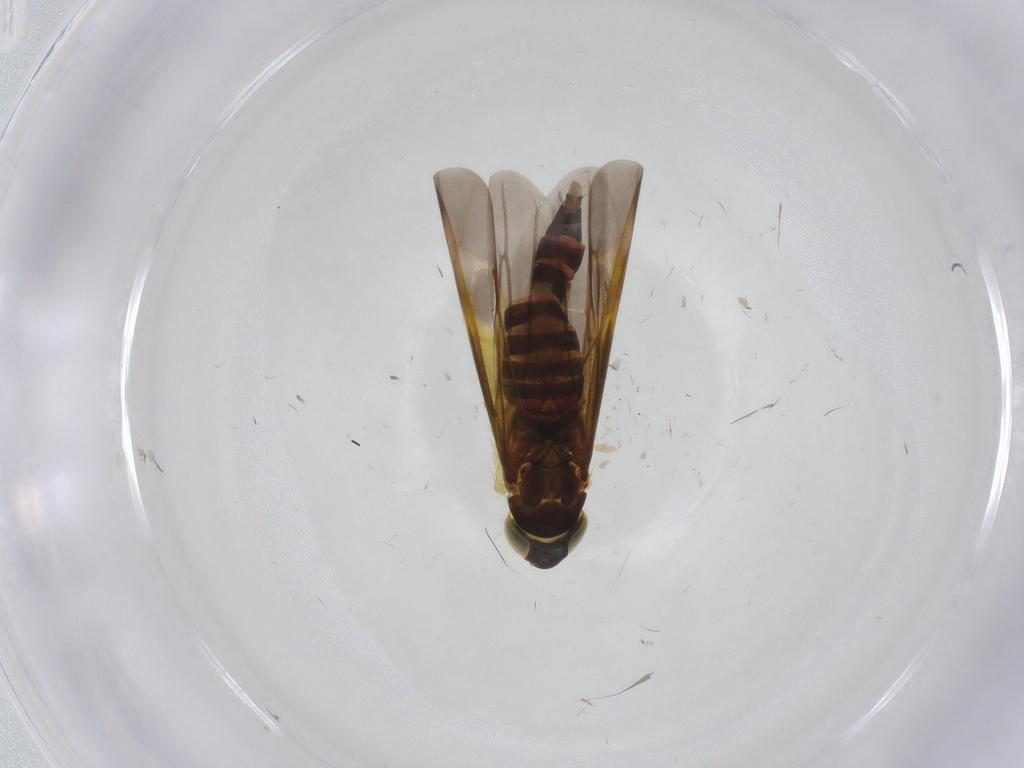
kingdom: Animalia
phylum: Arthropoda
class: Insecta
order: Hemiptera
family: Cicadellidae
